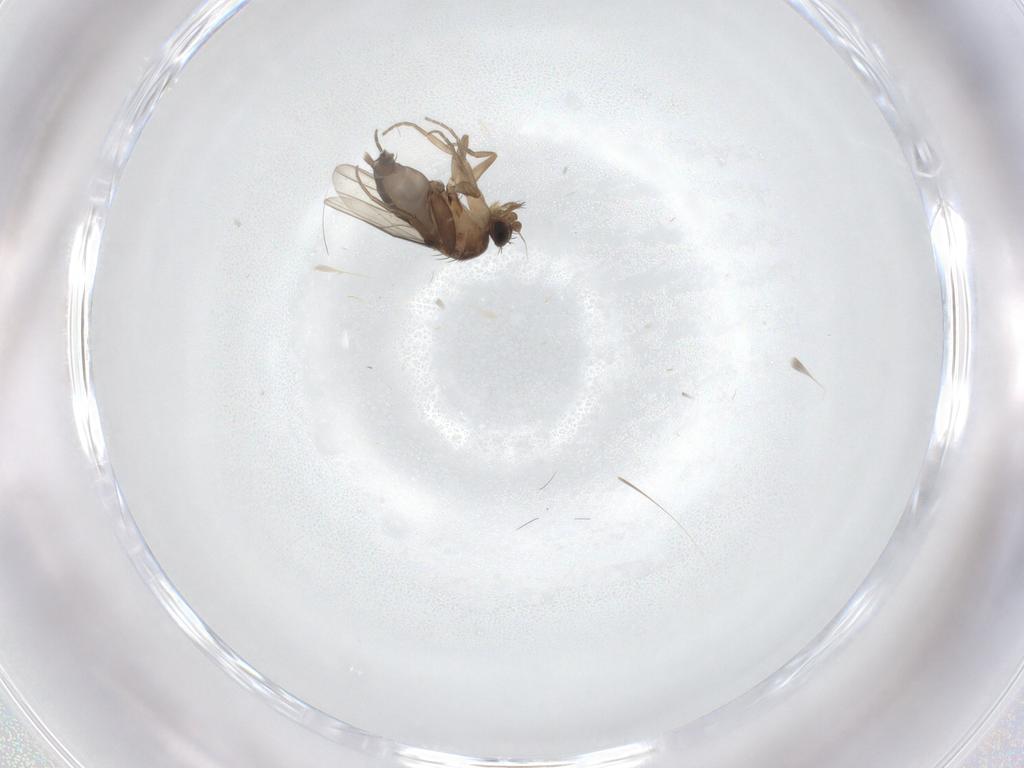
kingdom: Animalia
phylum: Arthropoda
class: Insecta
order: Diptera
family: Phoridae
